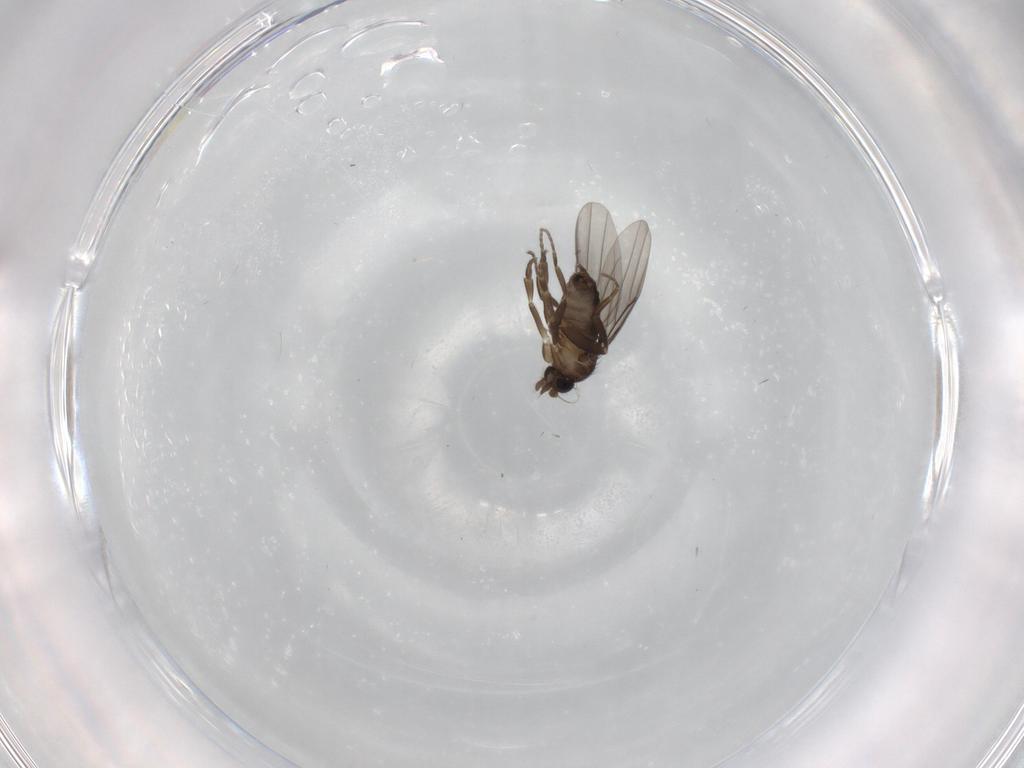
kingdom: Animalia
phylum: Arthropoda
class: Insecta
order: Diptera
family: Phoridae
